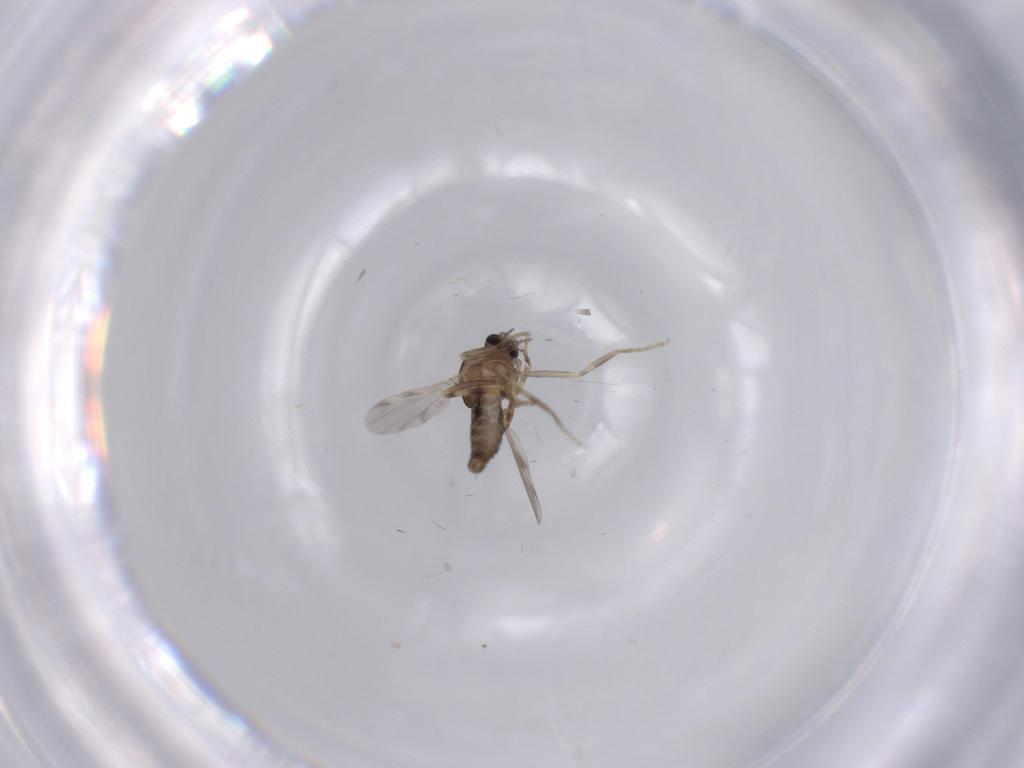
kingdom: Animalia
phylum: Arthropoda
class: Insecta
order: Diptera
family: Ceratopogonidae
